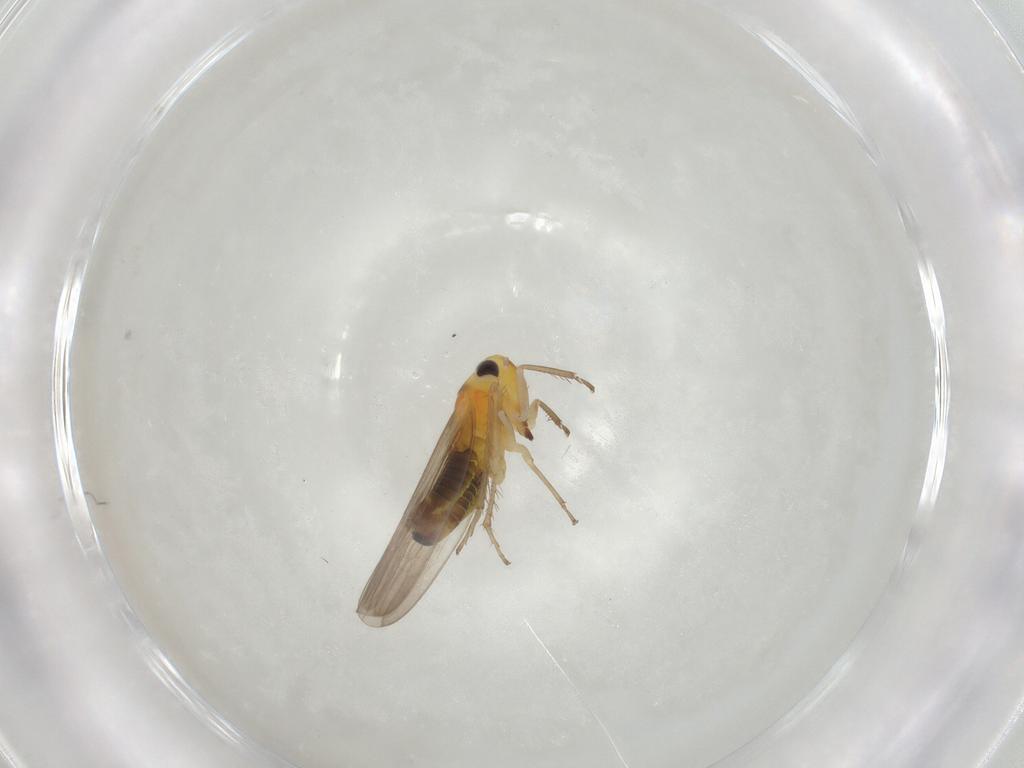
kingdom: Animalia
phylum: Arthropoda
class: Insecta
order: Hemiptera
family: Cicadellidae
